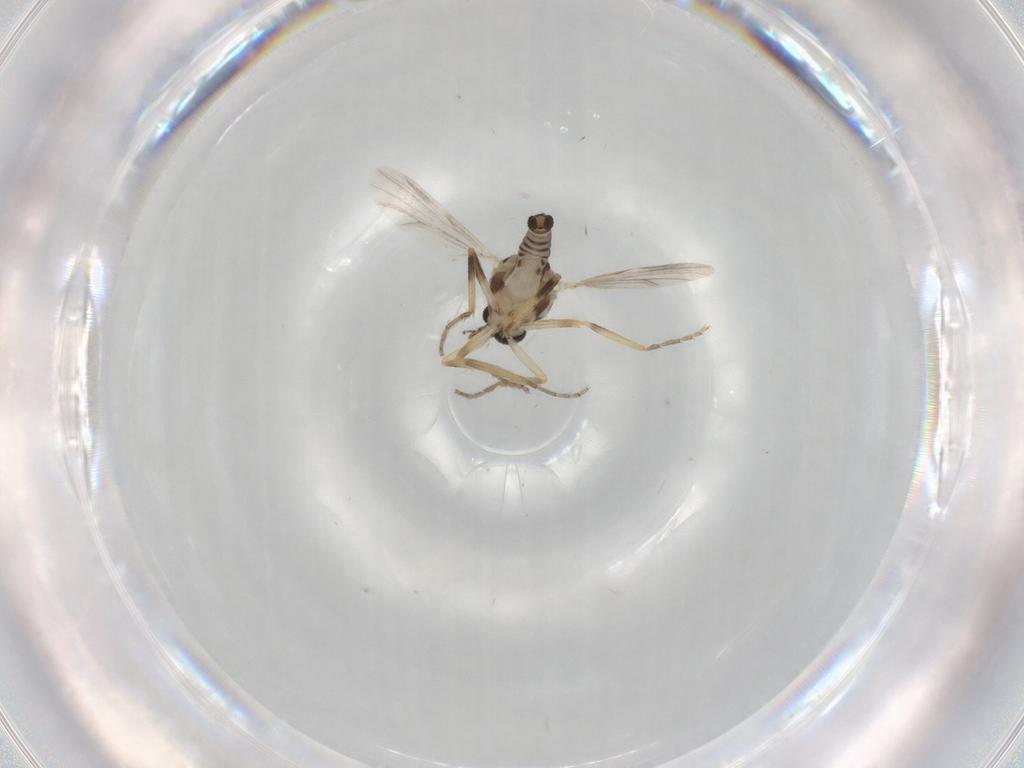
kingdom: Animalia
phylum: Arthropoda
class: Insecta
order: Diptera
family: Ceratopogonidae
